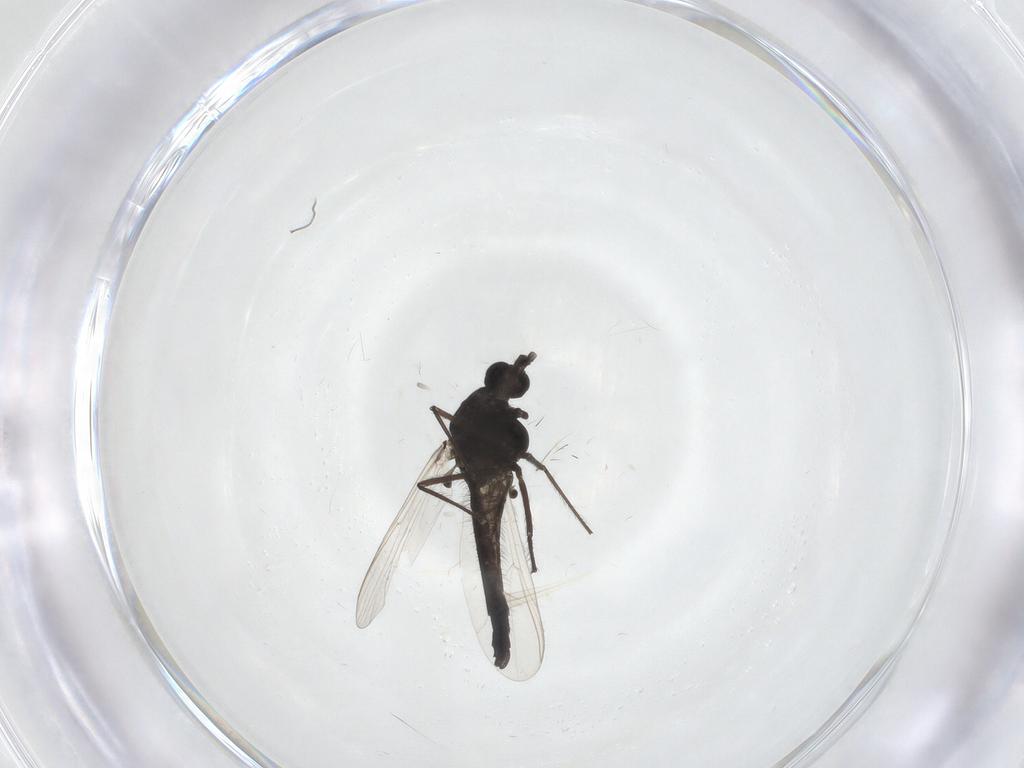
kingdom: Animalia
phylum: Arthropoda
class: Insecta
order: Diptera
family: Chironomidae
